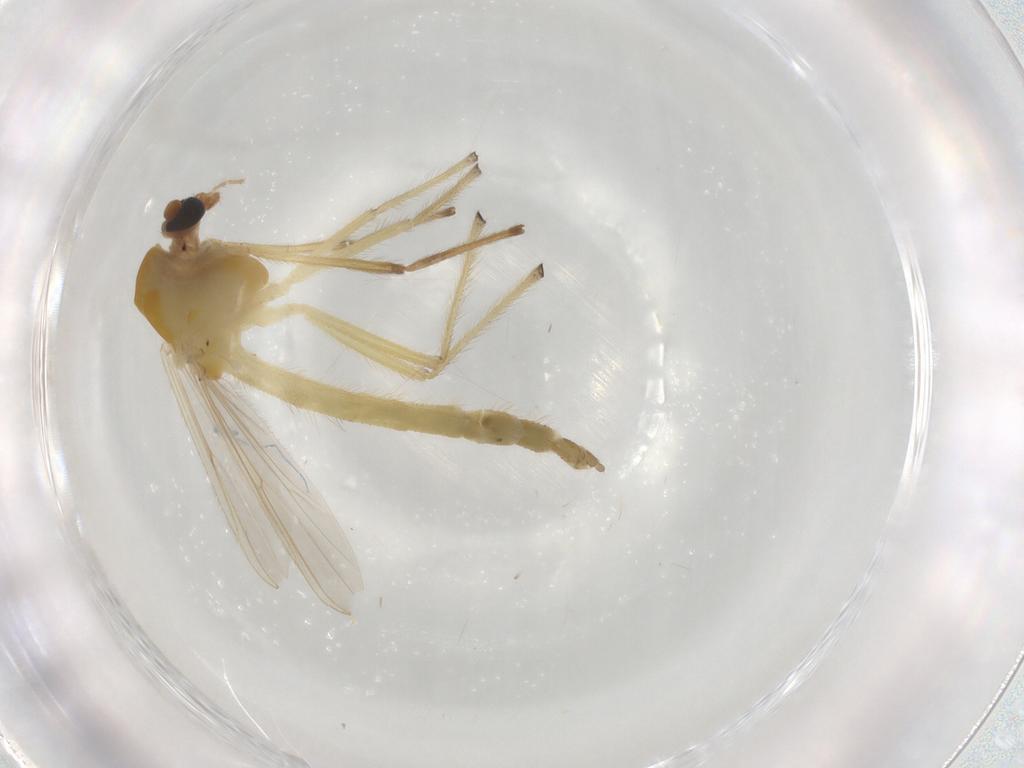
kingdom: Animalia
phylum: Arthropoda
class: Insecta
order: Diptera
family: Chironomidae
